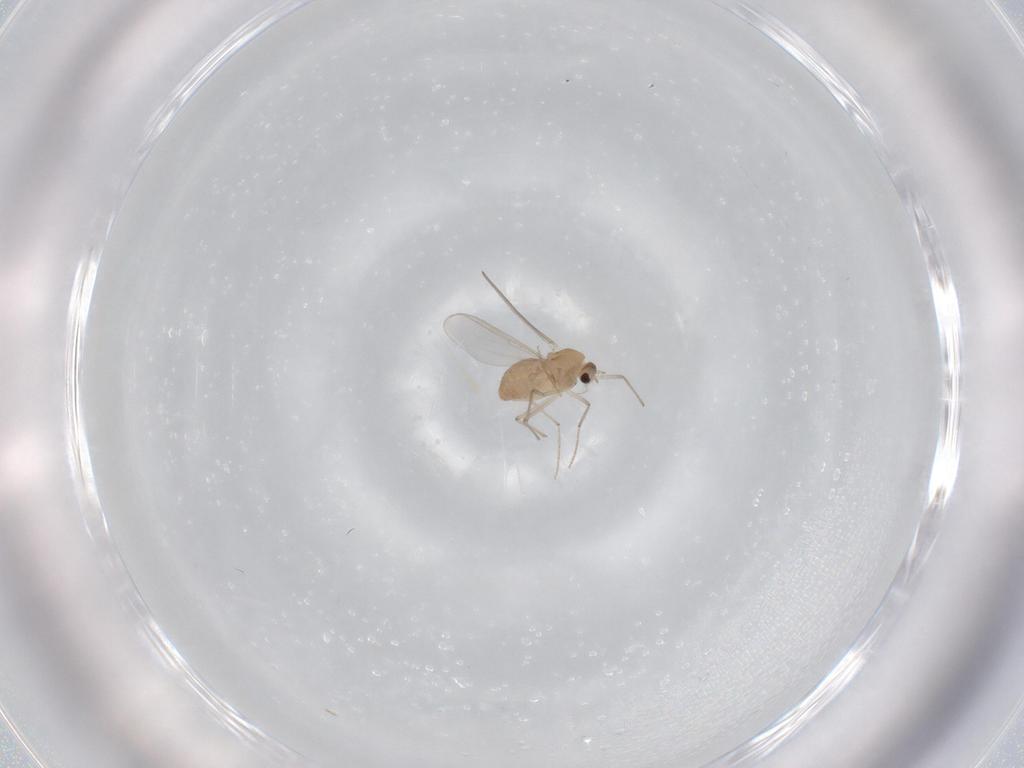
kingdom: Animalia
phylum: Arthropoda
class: Insecta
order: Diptera
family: Chironomidae
